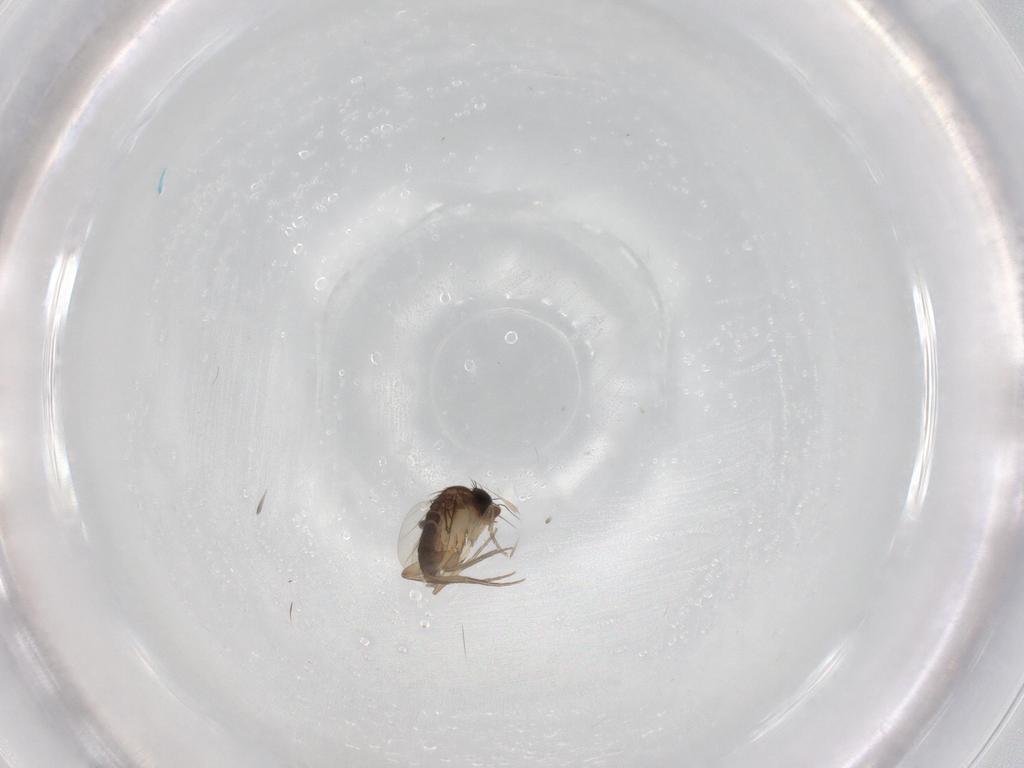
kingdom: Animalia
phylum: Arthropoda
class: Insecta
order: Diptera
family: Phoridae
